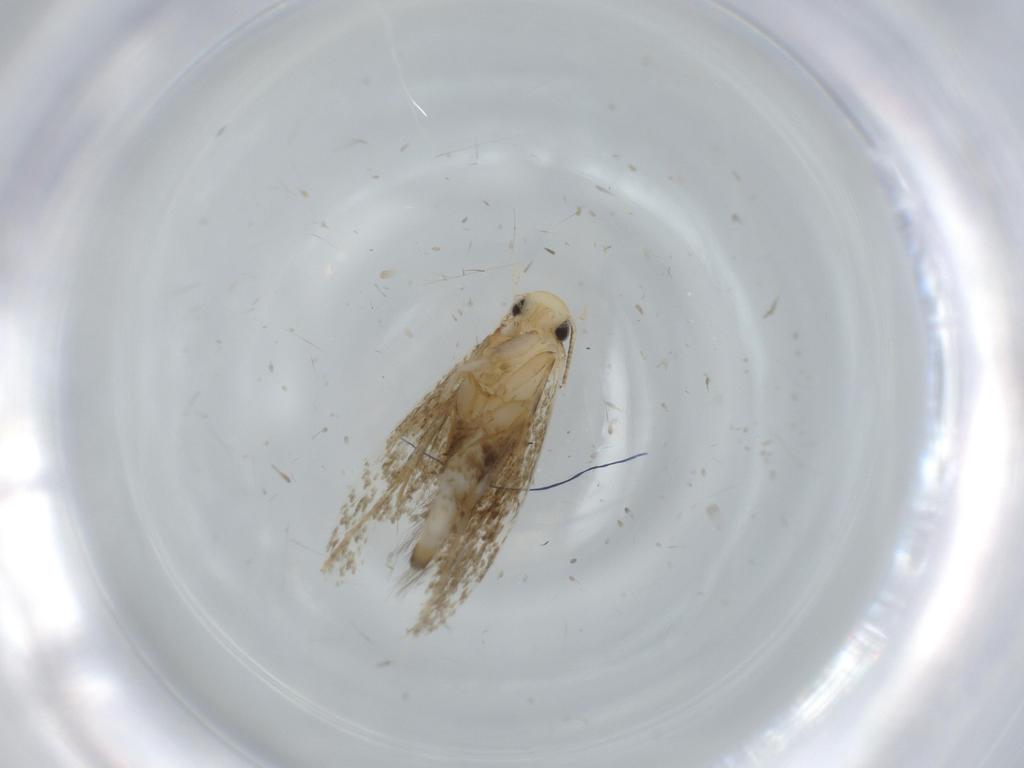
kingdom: Animalia
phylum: Arthropoda
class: Insecta
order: Lepidoptera
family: Tineidae
